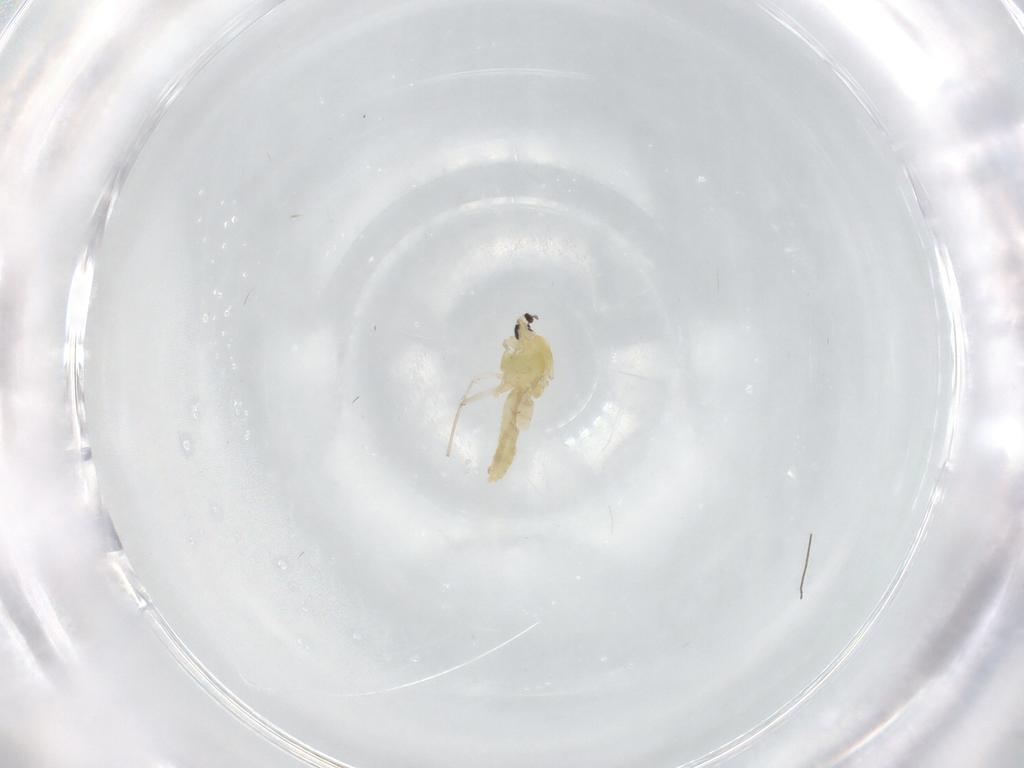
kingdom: Animalia
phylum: Arthropoda
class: Insecta
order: Diptera
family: Chironomidae
